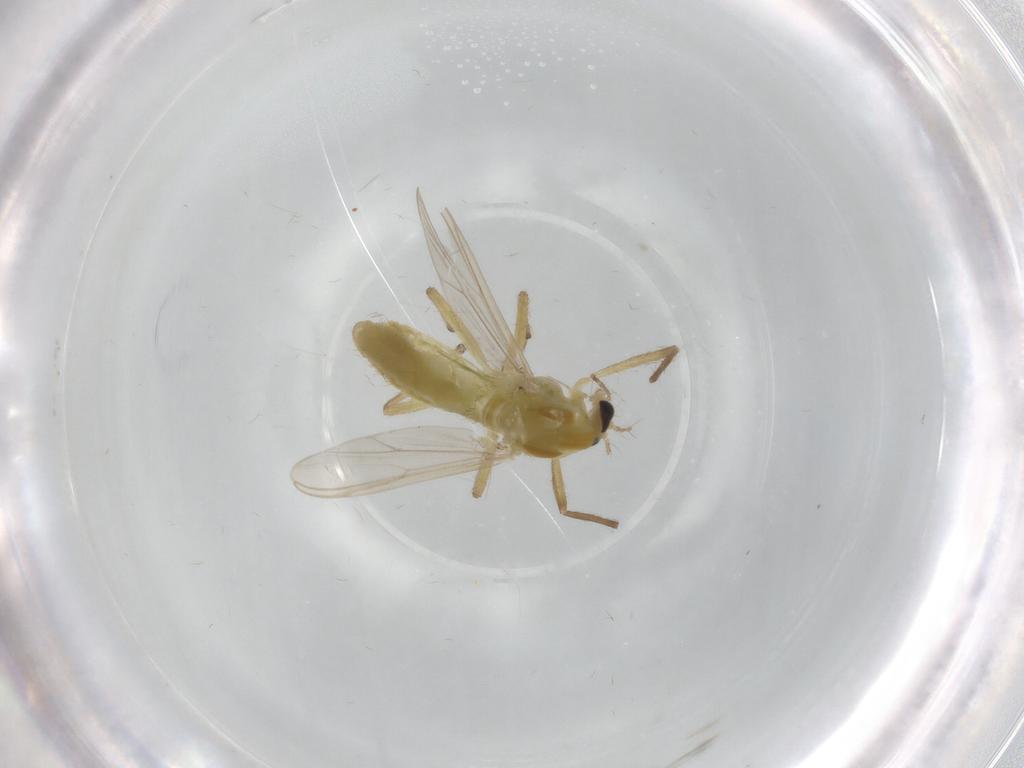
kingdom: Animalia
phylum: Arthropoda
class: Insecta
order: Diptera
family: Chironomidae
